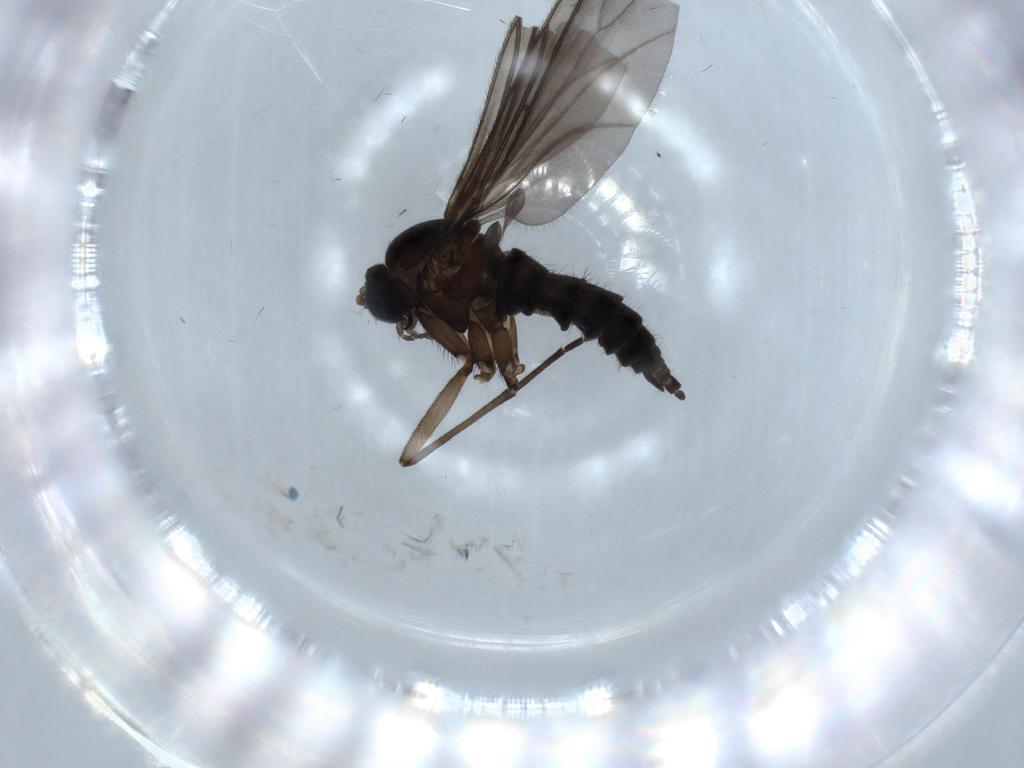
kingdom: Animalia
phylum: Arthropoda
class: Insecta
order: Diptera
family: Sciaridae
